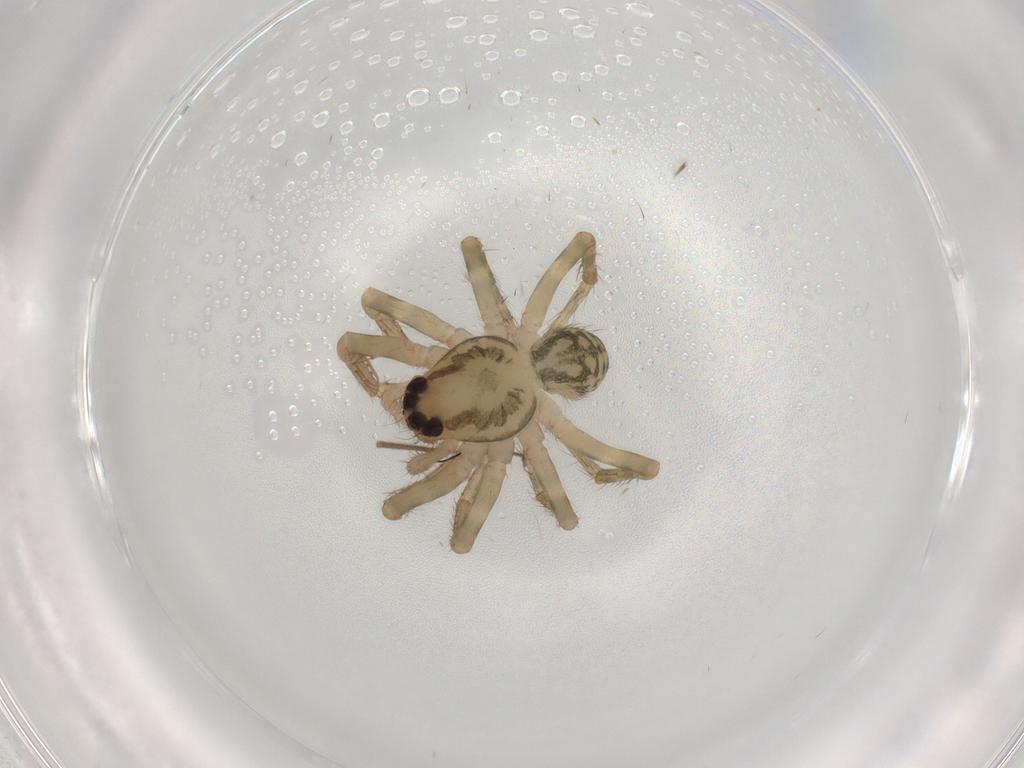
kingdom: Animalia
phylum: Arthropoda
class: Arachnida
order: Araneae
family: Ctenidae
